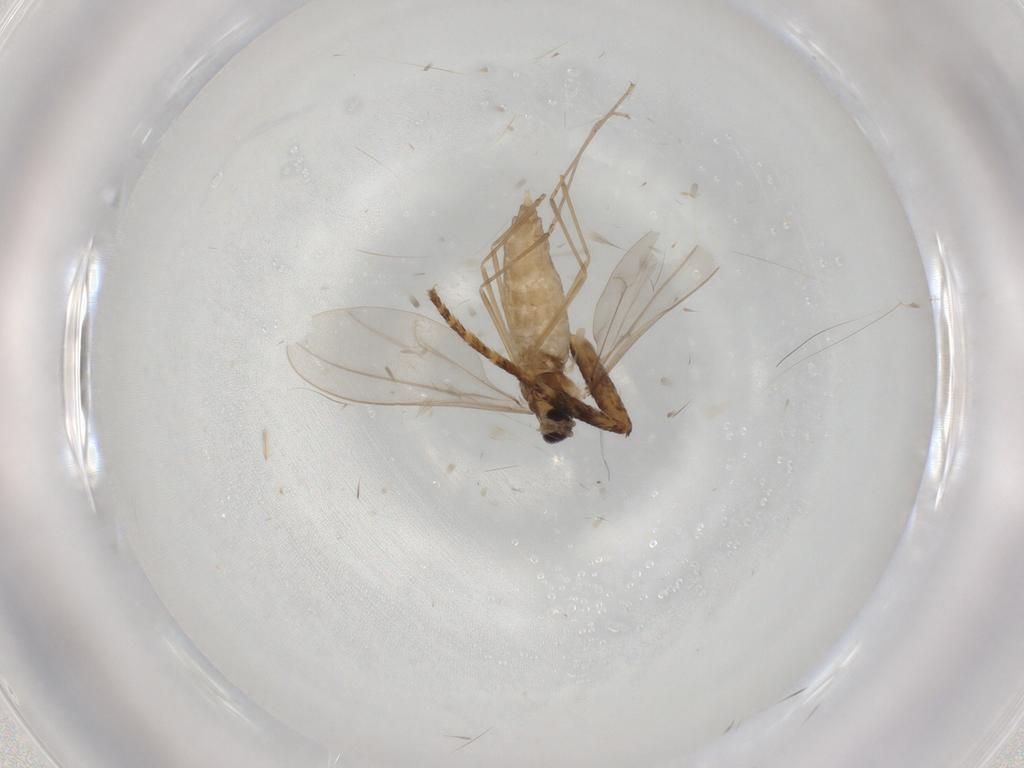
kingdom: Animalia
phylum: Arthropoda
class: Insecta
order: Diptera
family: Cecidomyiidae
